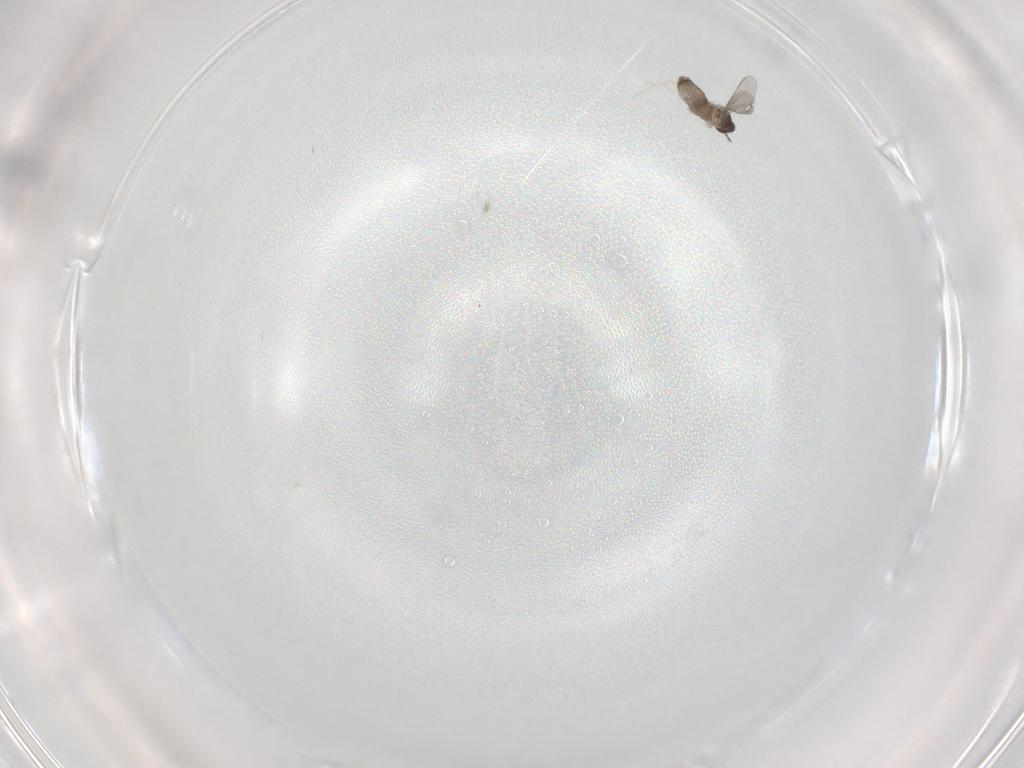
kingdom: Animalia
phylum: Arthropoda
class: Insecta
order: Diptera
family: Phoridae
